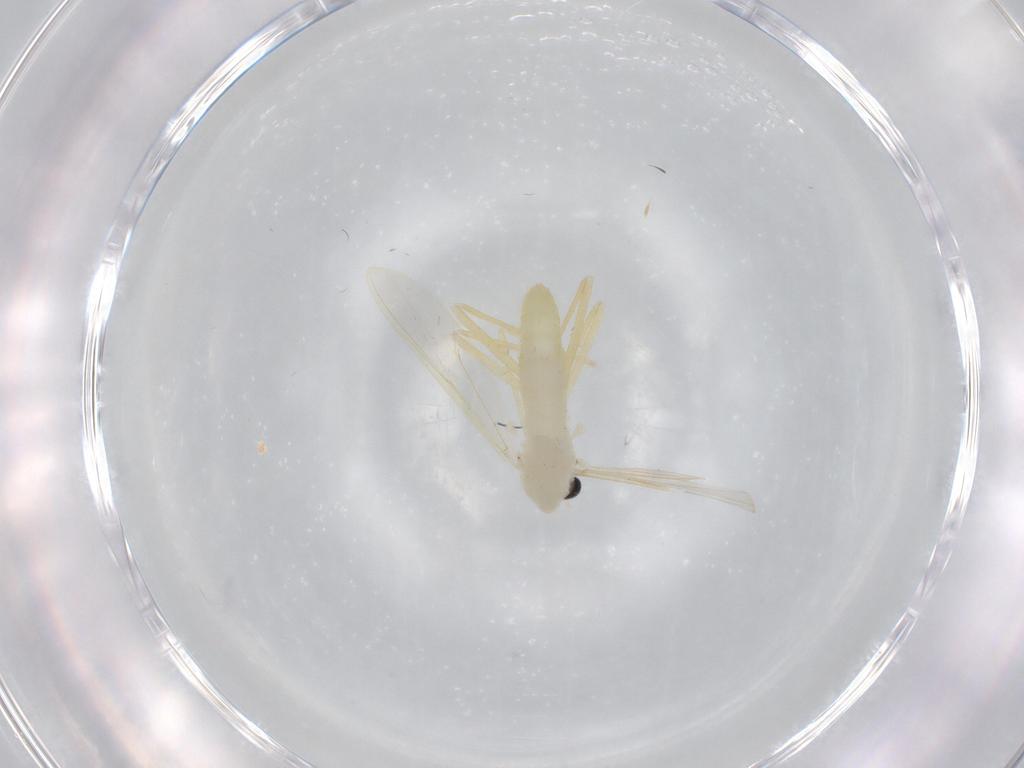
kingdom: Animalia
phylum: Arthropoda
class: Insecta
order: Diptera
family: Chironomidae
